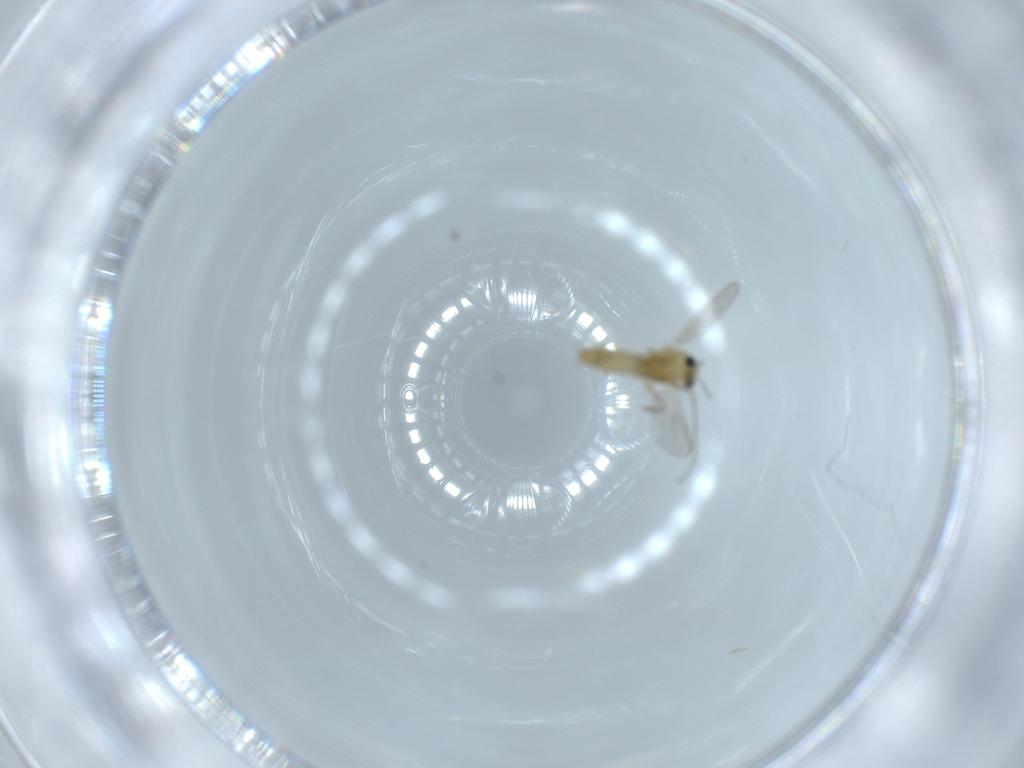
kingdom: Animalia
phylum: Arthropoda
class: Insecta
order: Diptera
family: Chironomidae
